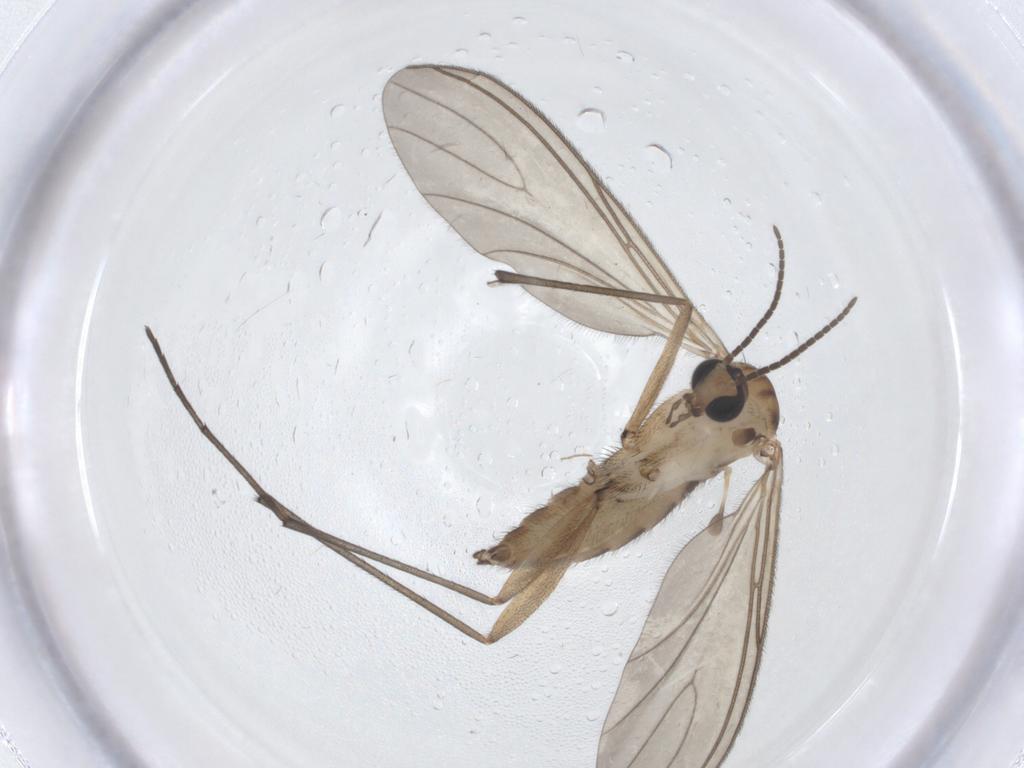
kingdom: Animalia
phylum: Arthropoda
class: Insecta
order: Diptera
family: Sciaridae
